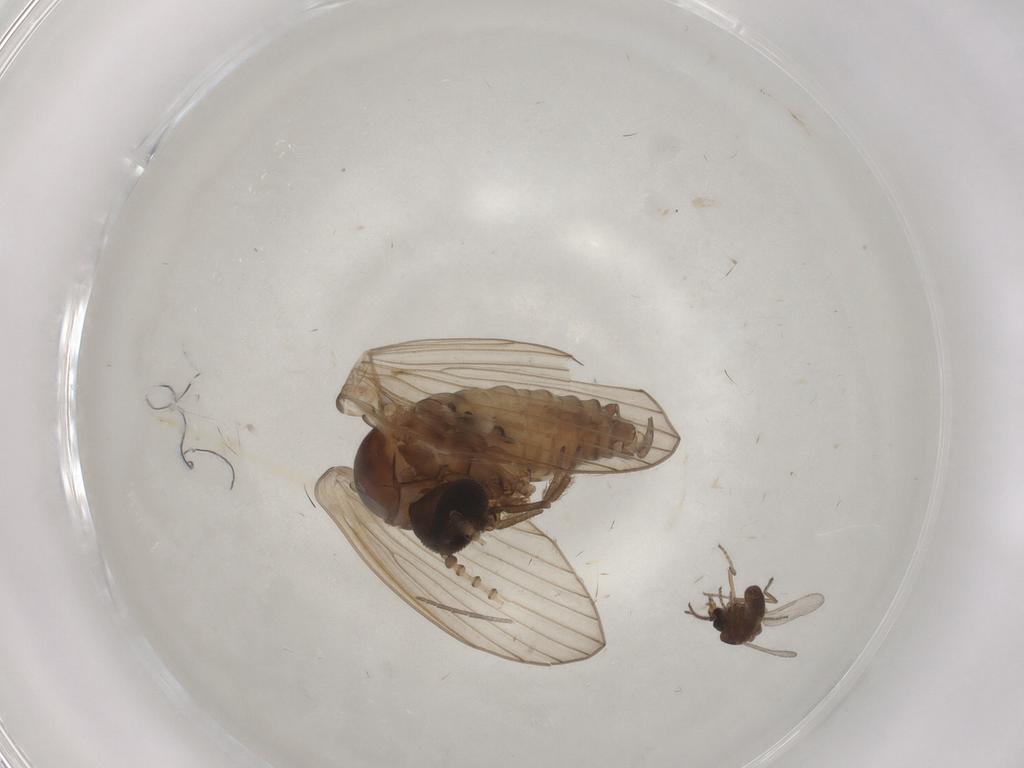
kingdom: Animalia
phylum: Arthropoda
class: Insecta
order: Diptera
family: Psychodidae
